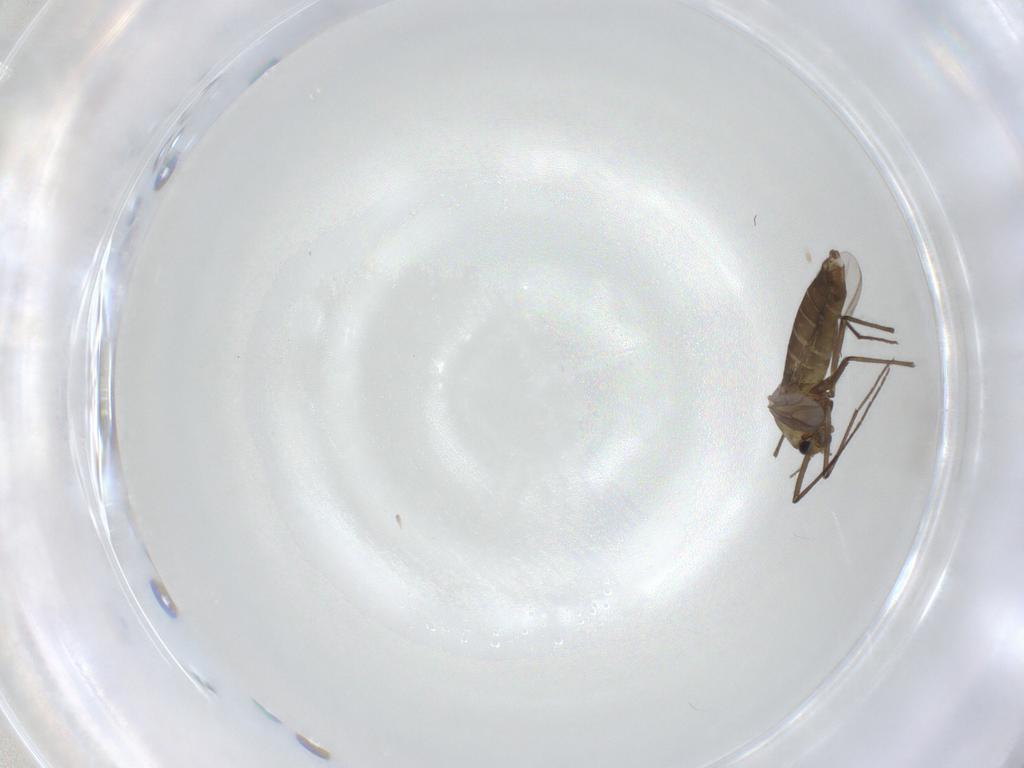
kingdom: Animalia
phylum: Arthropoda
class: Insecta
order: Diptera
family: Chironomidae
